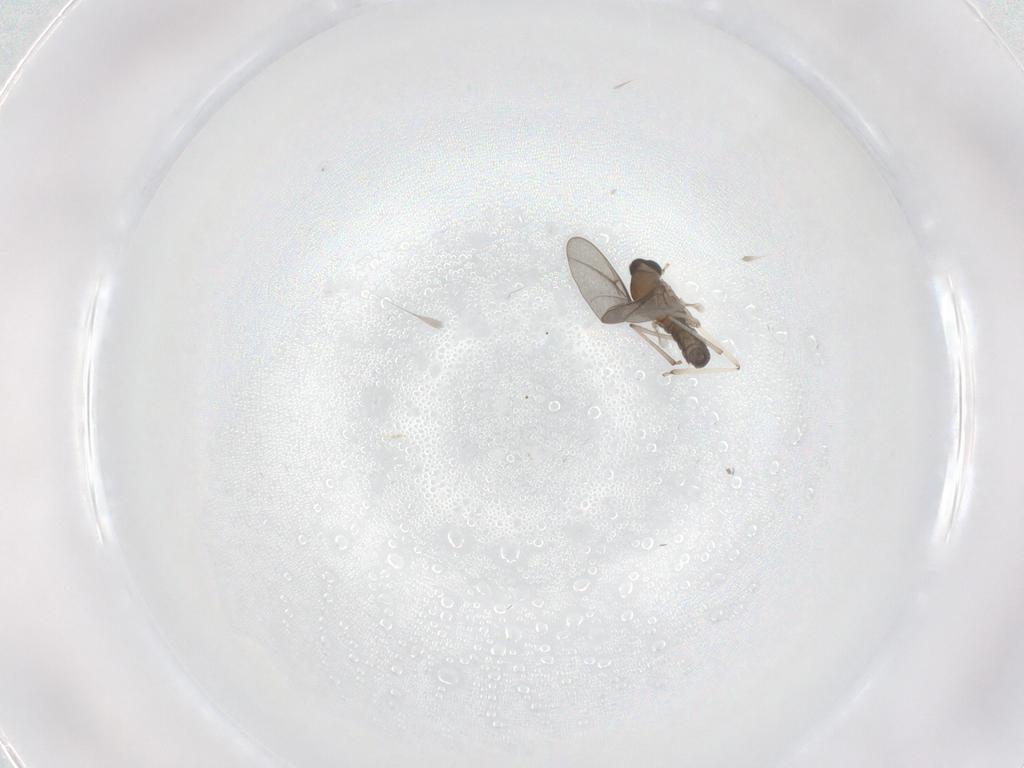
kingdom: Animalia
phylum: Arthropoda
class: Insecta
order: Diptera
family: Cecidomyiidae
